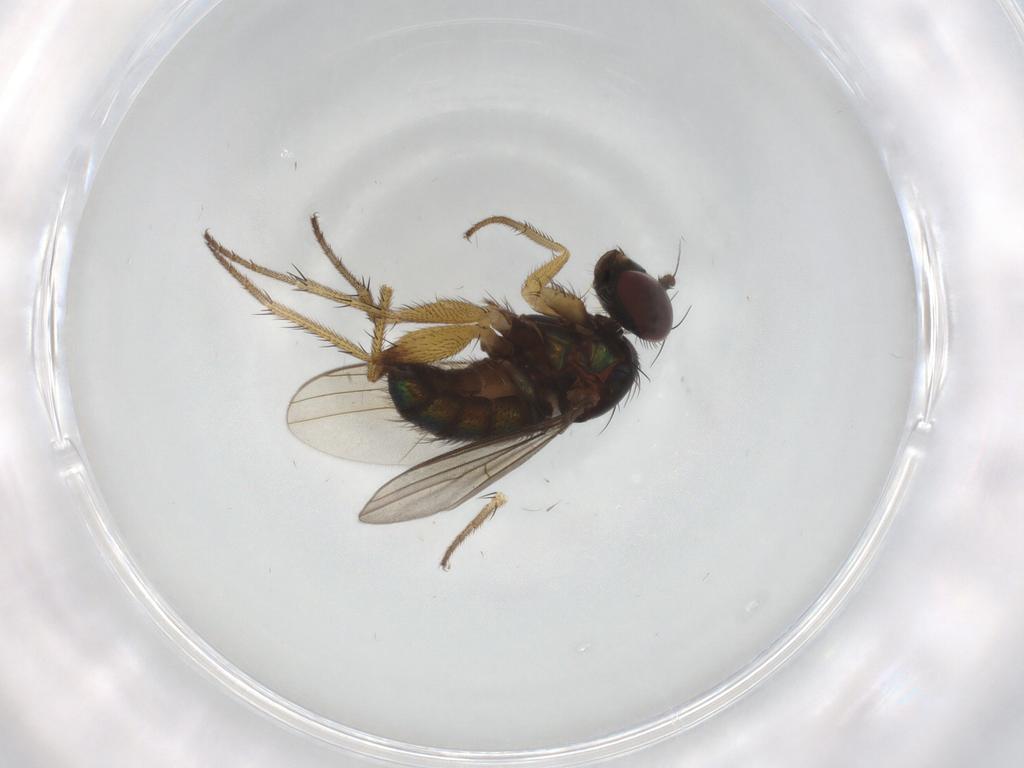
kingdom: Animalia
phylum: Arthropoda
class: Insecta
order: Diptera
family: Dolichopodidae
